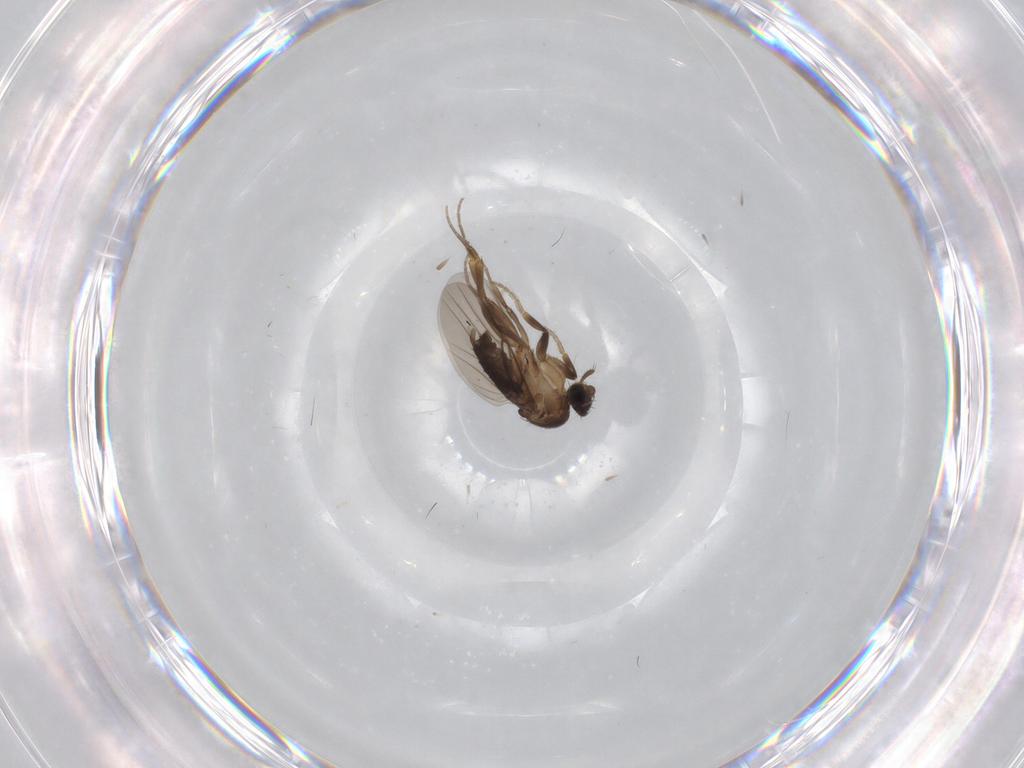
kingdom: Animalia
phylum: Arthropoda
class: Insecta
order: Diptera
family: Phoridae
